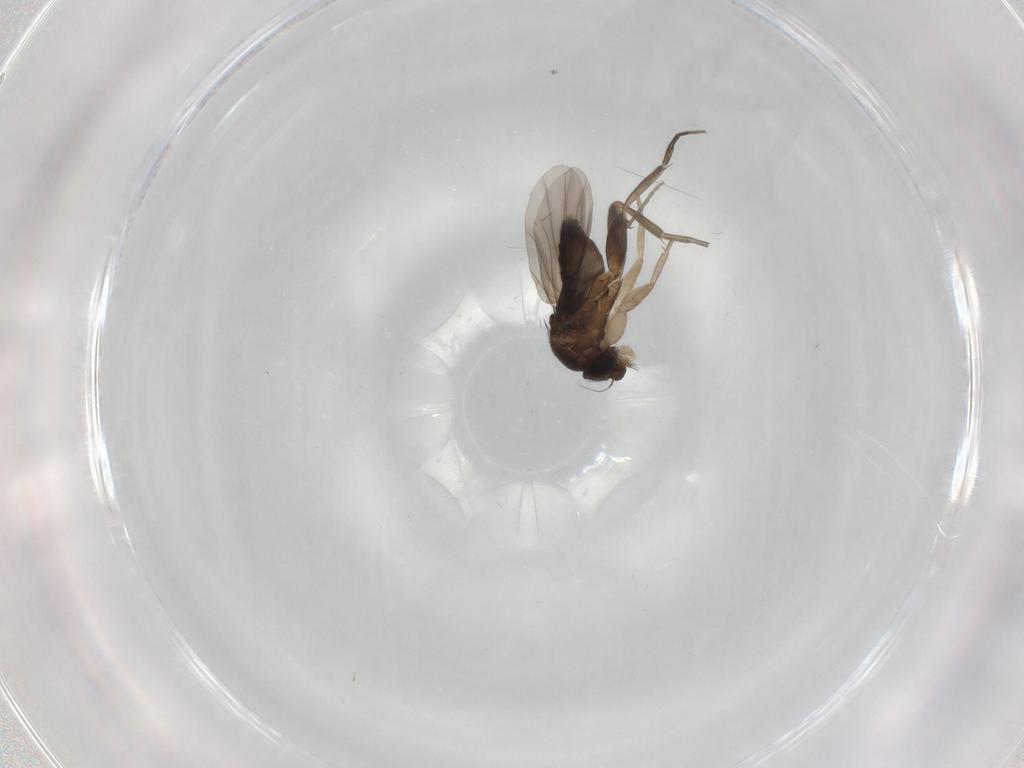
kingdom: Animalia
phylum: Arthropoda
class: Insecta
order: Diptera
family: Phoridae
